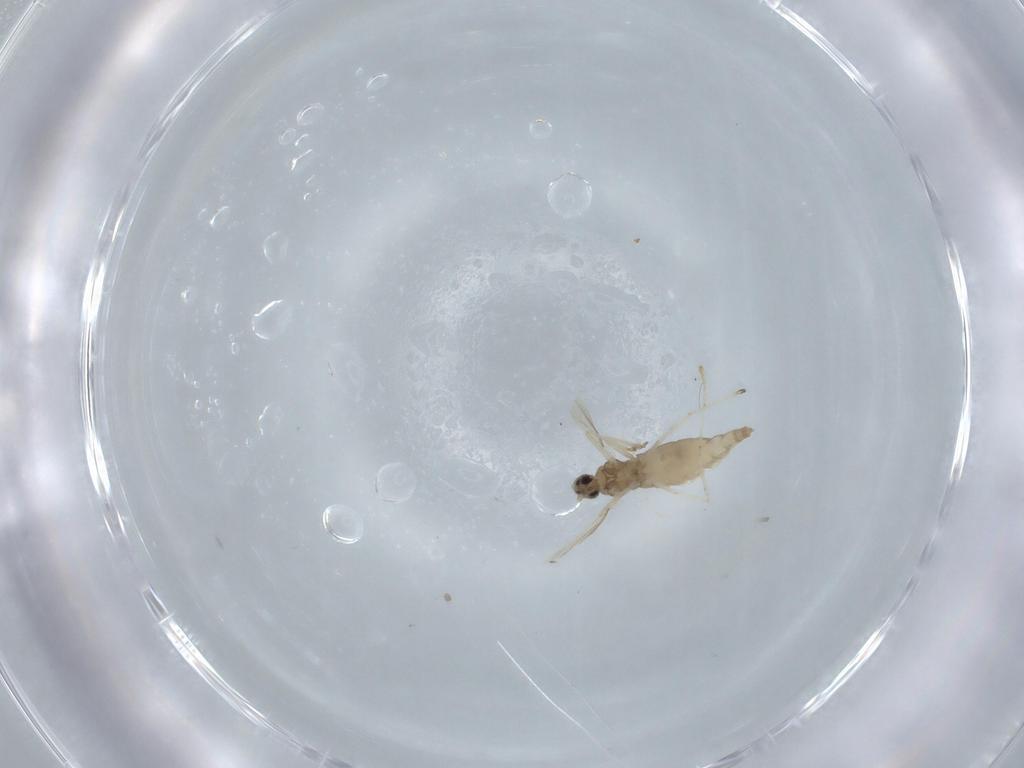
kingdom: Animalia
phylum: Arthropoda
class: Insecta
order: Diptera
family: Cecidomyiidae
